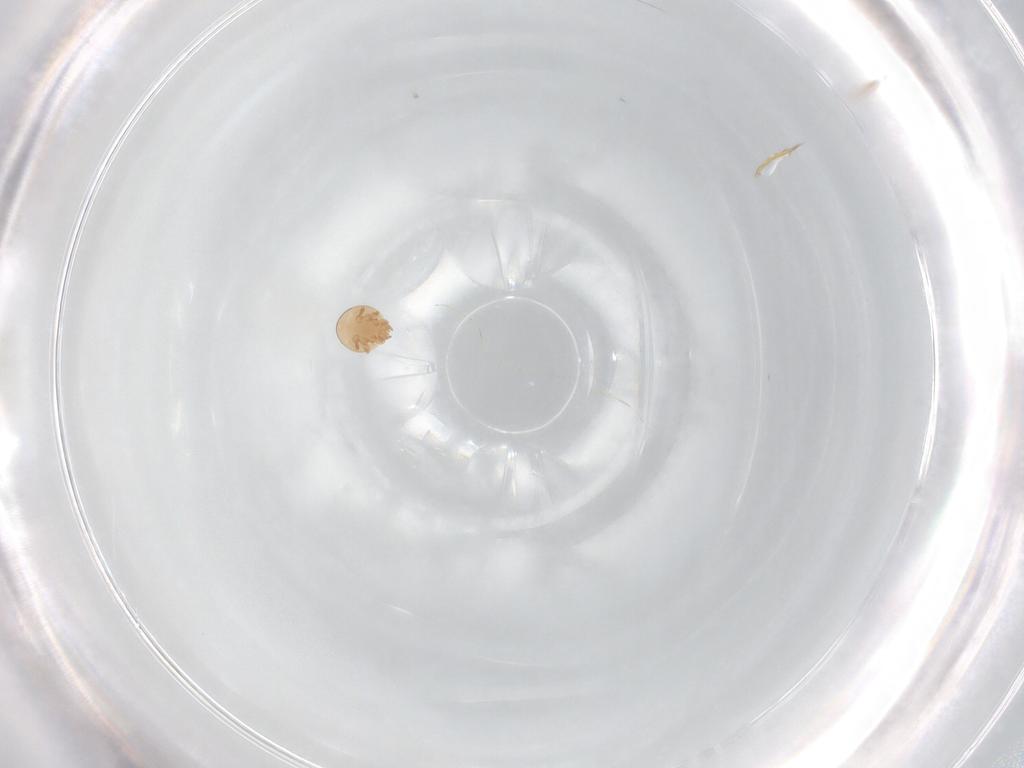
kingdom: Animalia
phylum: Arthropoda
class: Arachnida
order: Mesostigmata
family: Trematuridae
